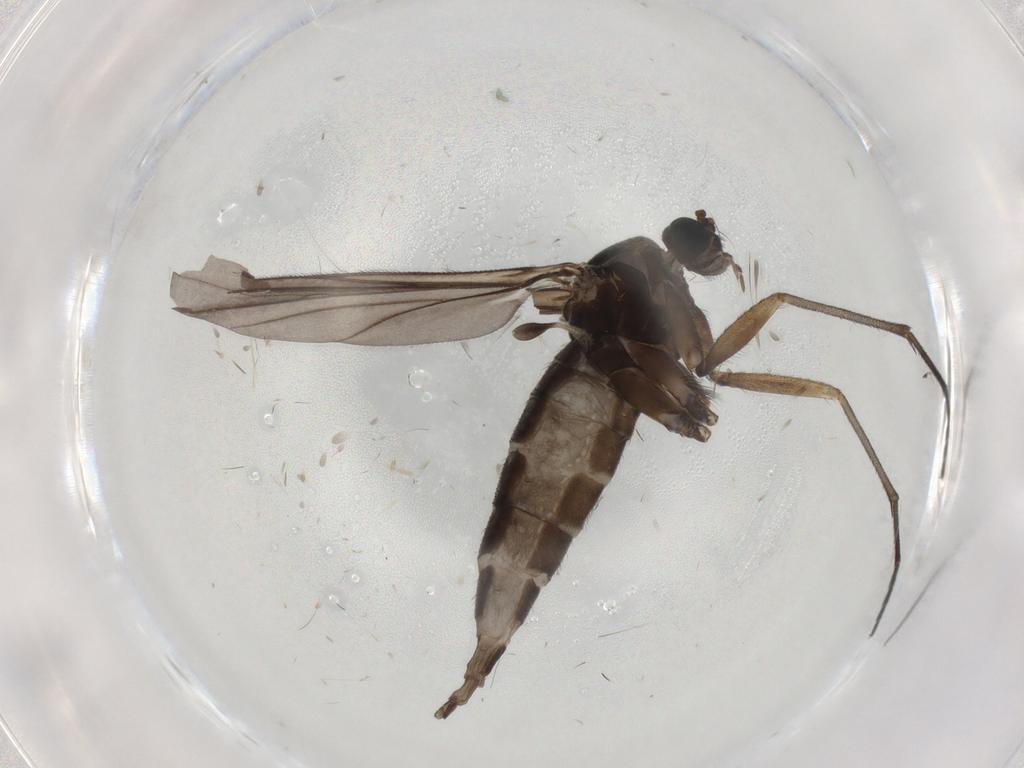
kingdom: Animalia
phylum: Arthropoda
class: Insecta
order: Diptera
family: Sciaridae
